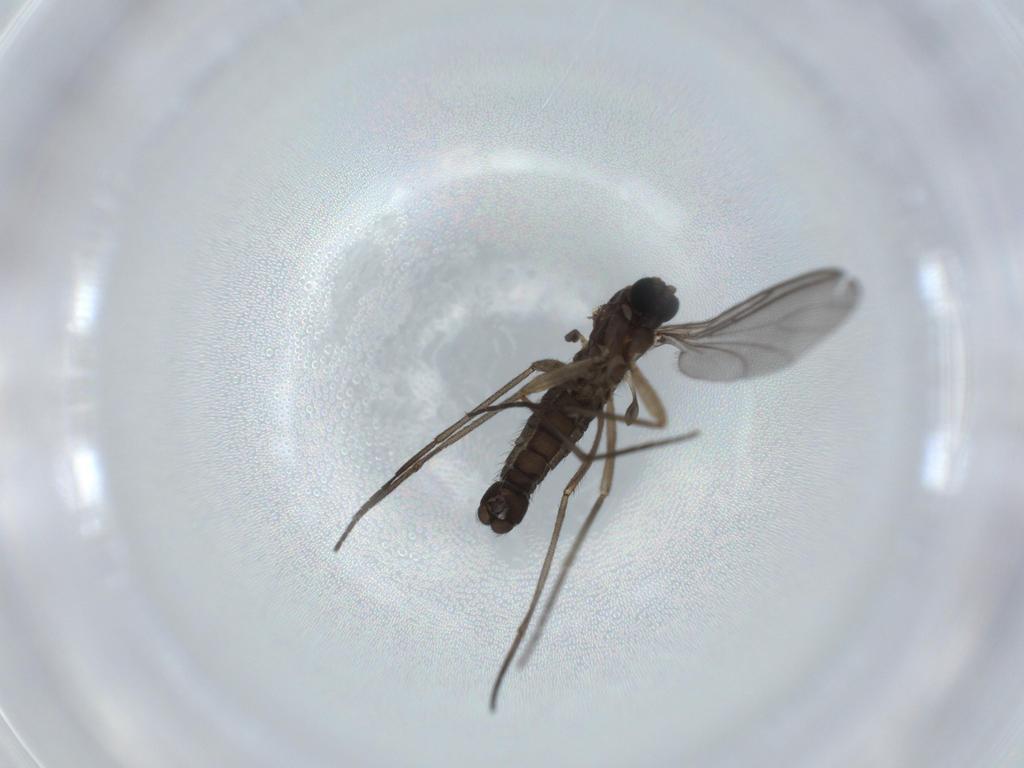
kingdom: Animalia
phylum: Arthropoda
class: Insecta
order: Diptera
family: Sciaridae
